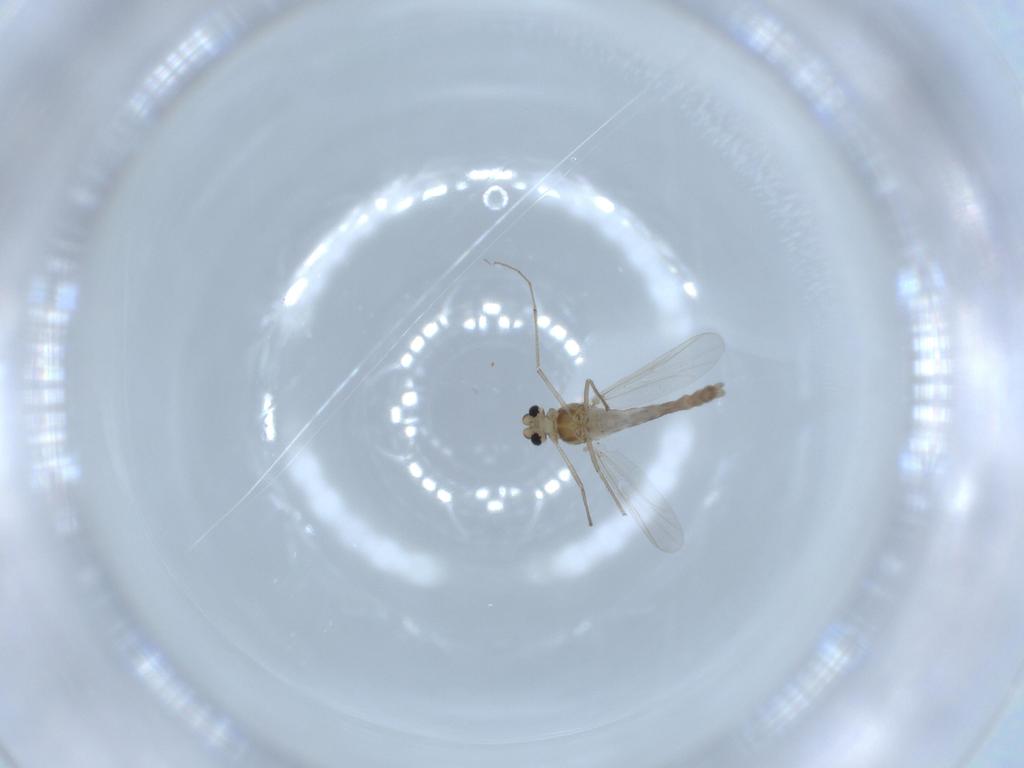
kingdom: Animalia
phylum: Arthropoda
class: Insecta
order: Diptera
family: Chironomidae
